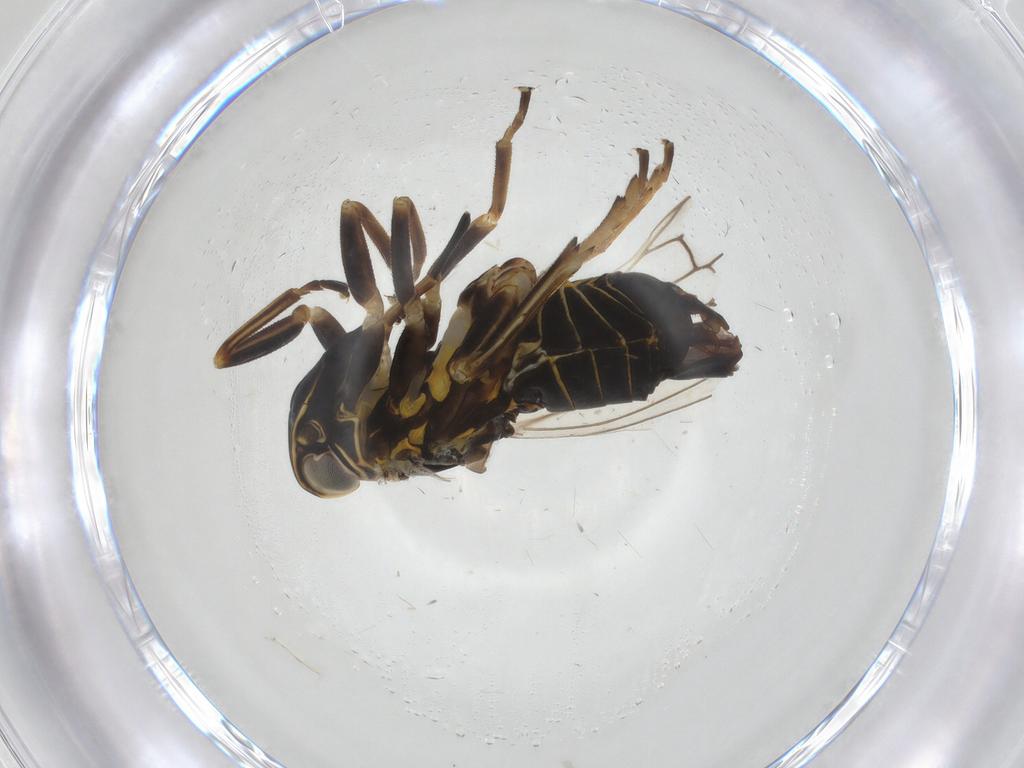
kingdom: Animalia
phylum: Arthropoda
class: Insecta
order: Hemiptera
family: Cixiidae
